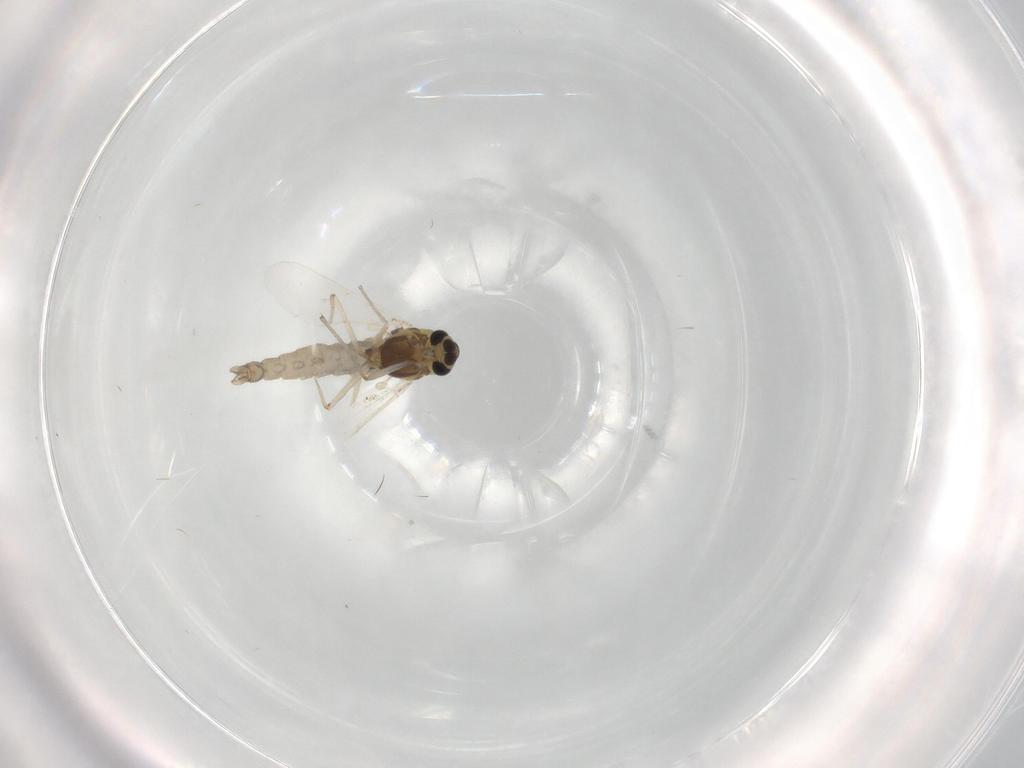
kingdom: Animalia
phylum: Arthropoda
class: Insecta
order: Diptera
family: Chironomidae
